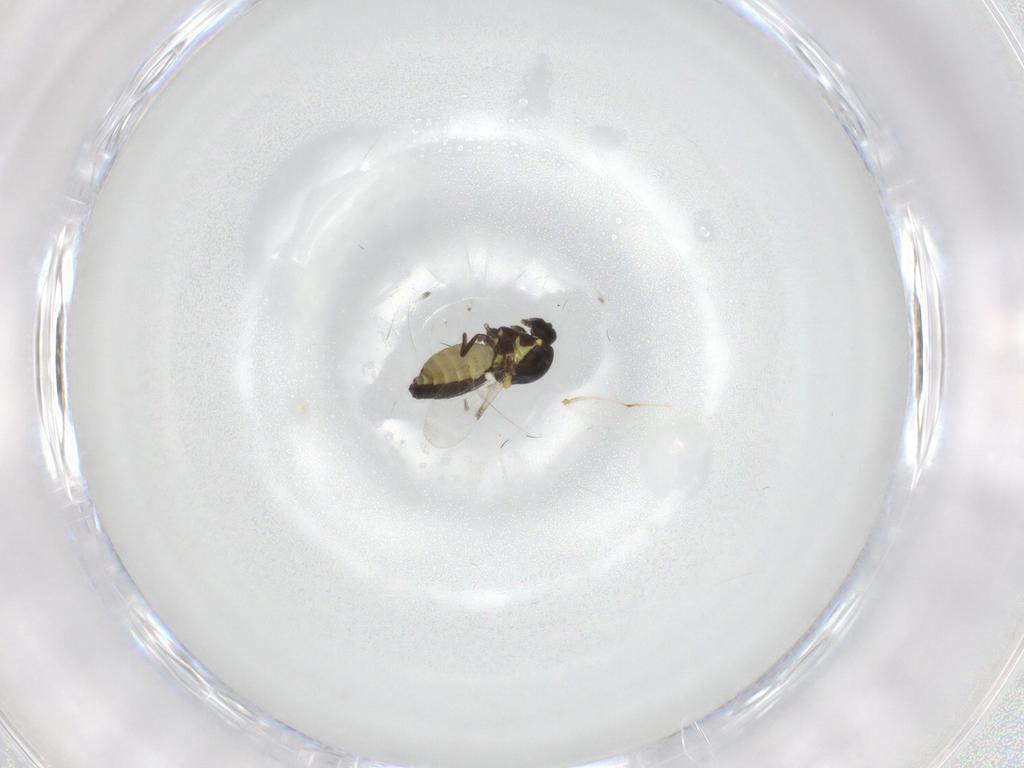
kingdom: Animalia
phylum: Arthropoda
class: Insecta
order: Diptera
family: Ceratopogonidae
